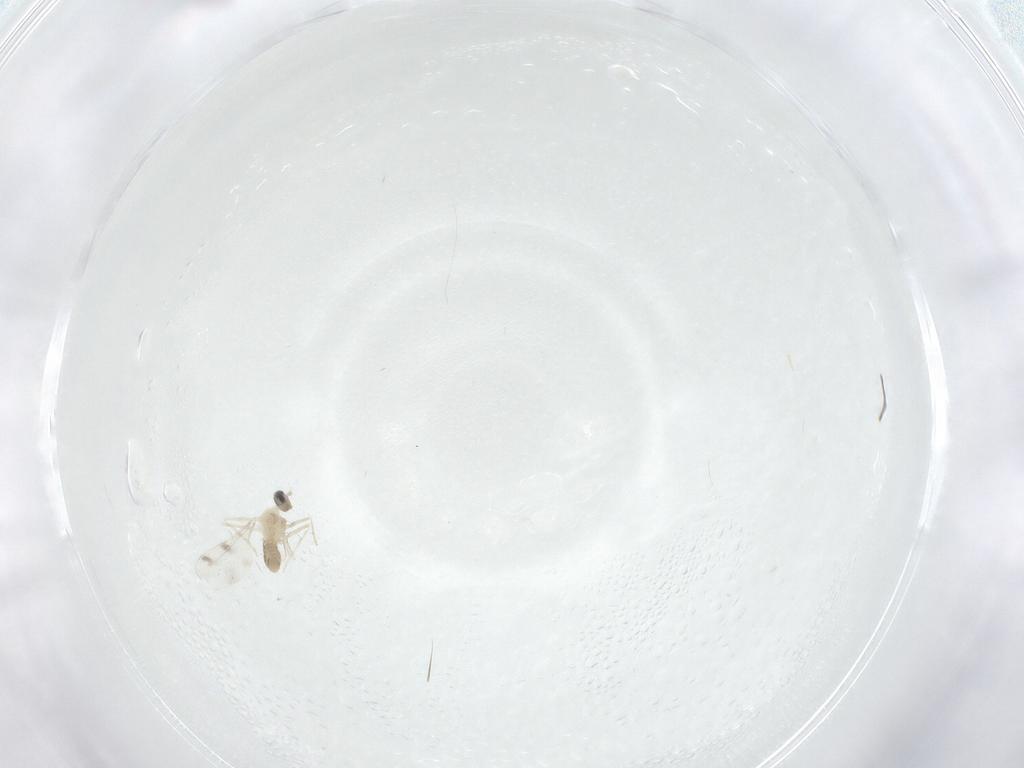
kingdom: Animalia
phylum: Arthropoda
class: Insecta
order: Diptera
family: Cecidomyiidae
